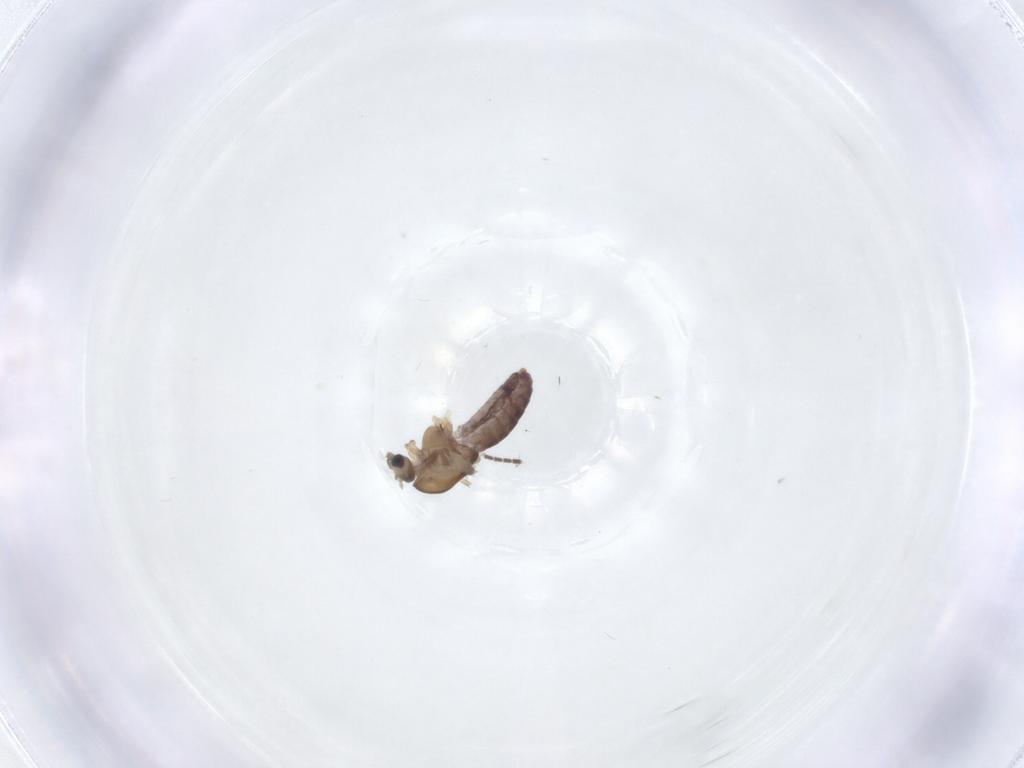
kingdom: Animalia
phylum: Arthropoda
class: Insecta
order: Diptera
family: Chironomidae
